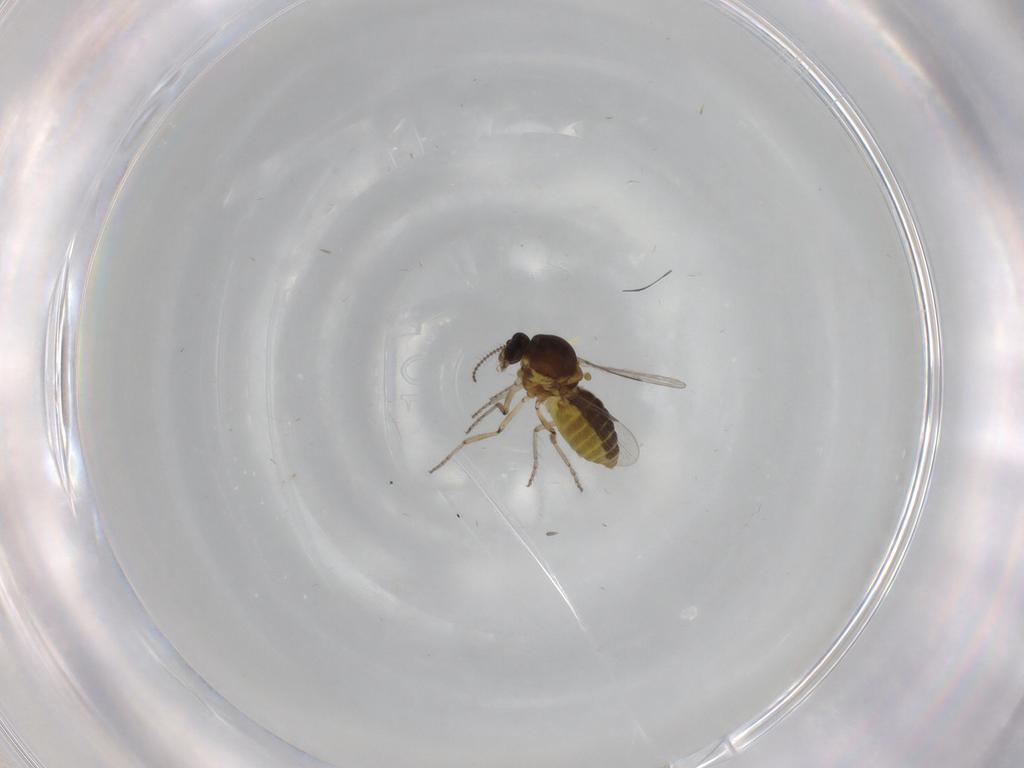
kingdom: Animalia
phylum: Arthropoda
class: Insecta
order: Diptera
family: Ceratopogonidae
